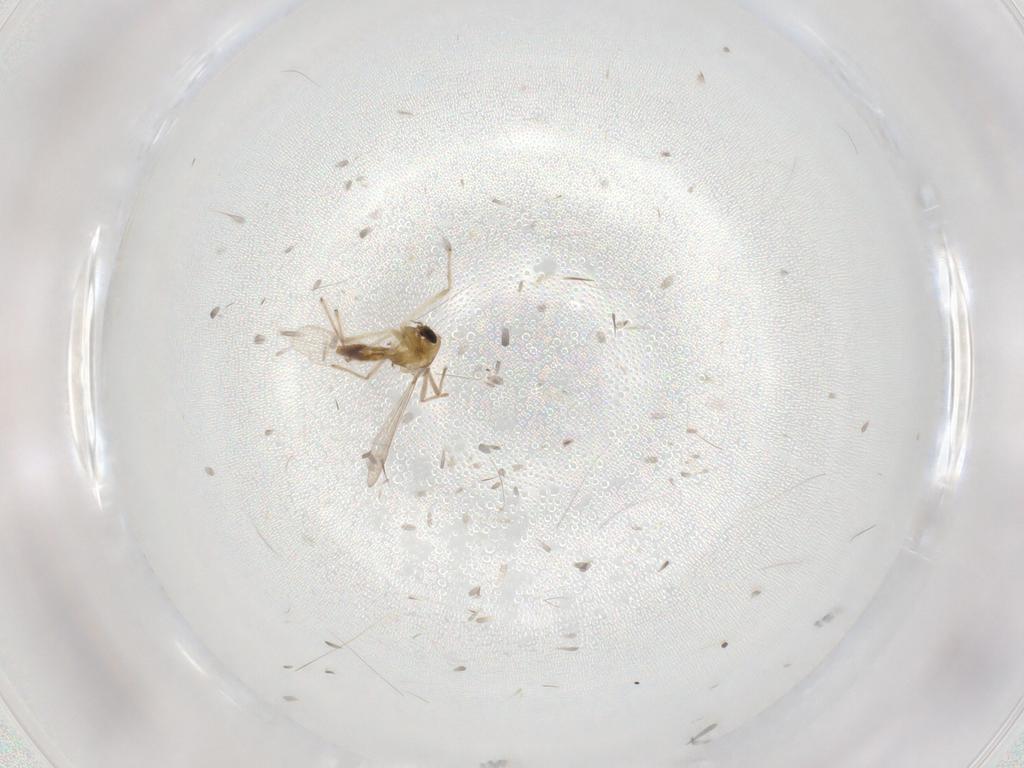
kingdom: Animalia
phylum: Arthropoda
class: Insecta
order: Diptera
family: Chironomidae
